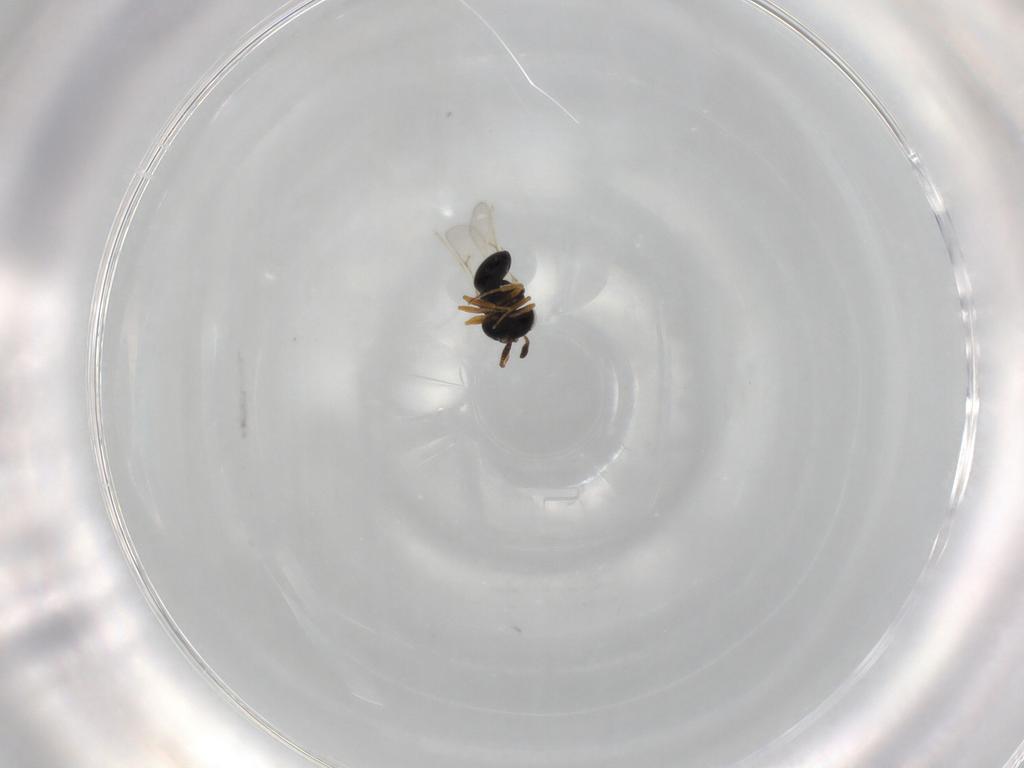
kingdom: Animalia
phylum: Arthropoda
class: Insecta
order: Hymenoptera
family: Scelionidae
